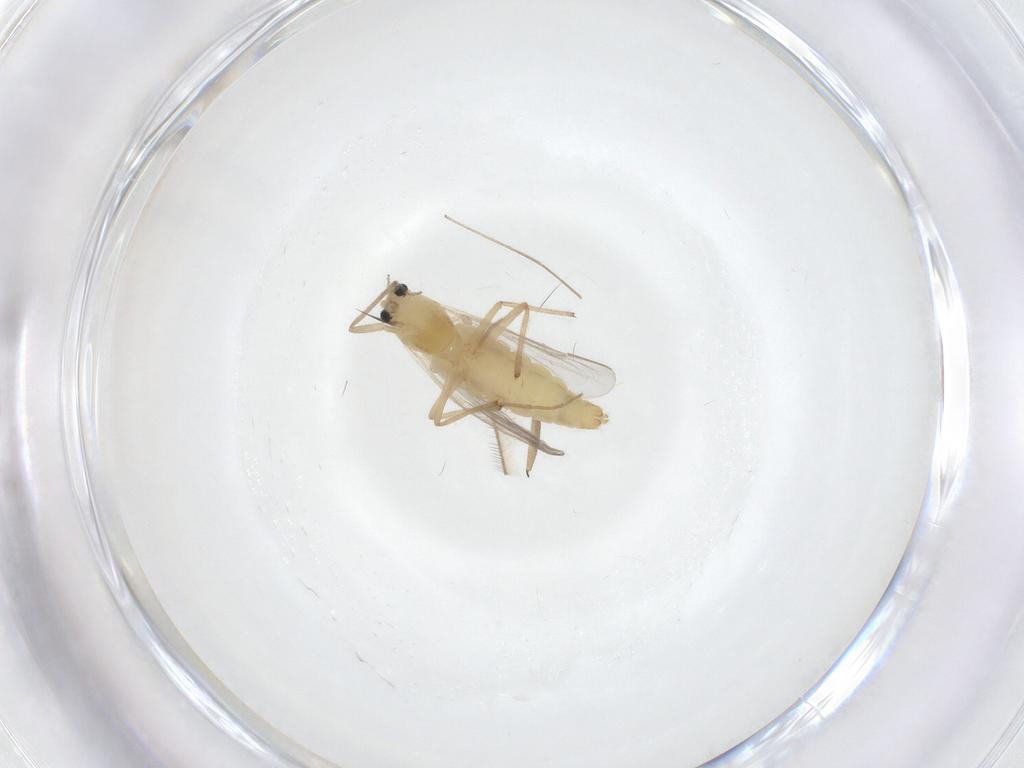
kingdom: Animalia
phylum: Arthropoda
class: Insecta
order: Diptera
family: Chironomidae
